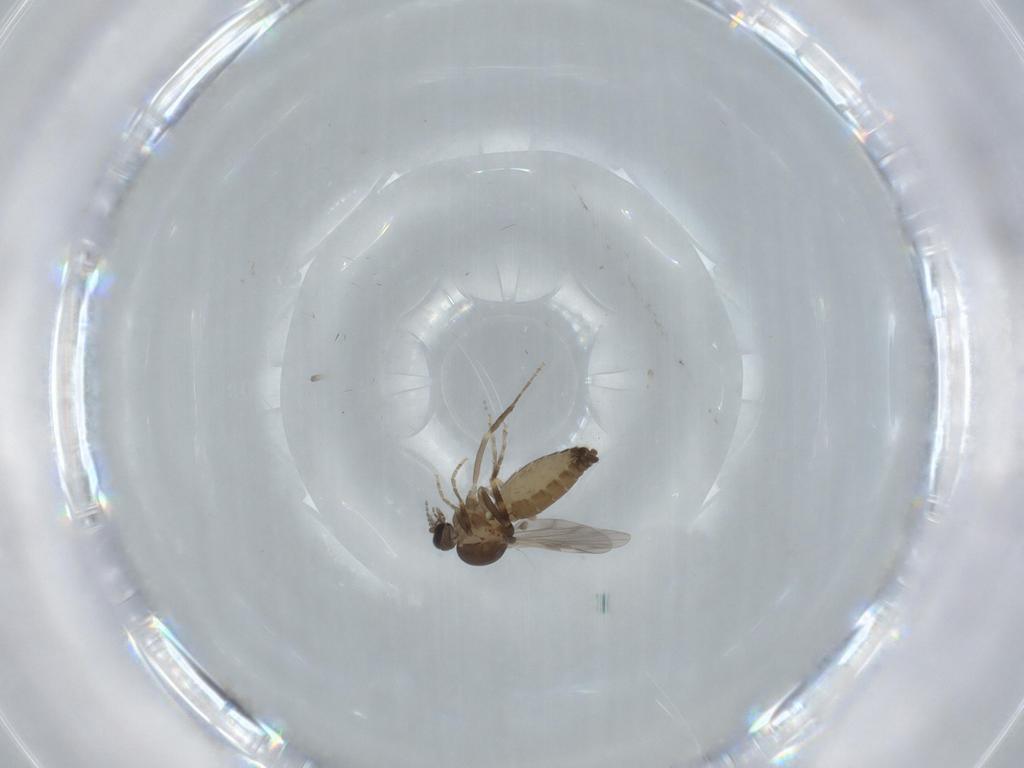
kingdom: Animalia
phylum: Arthropoda
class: Insecta
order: Diptera
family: Ceratopogonidae
